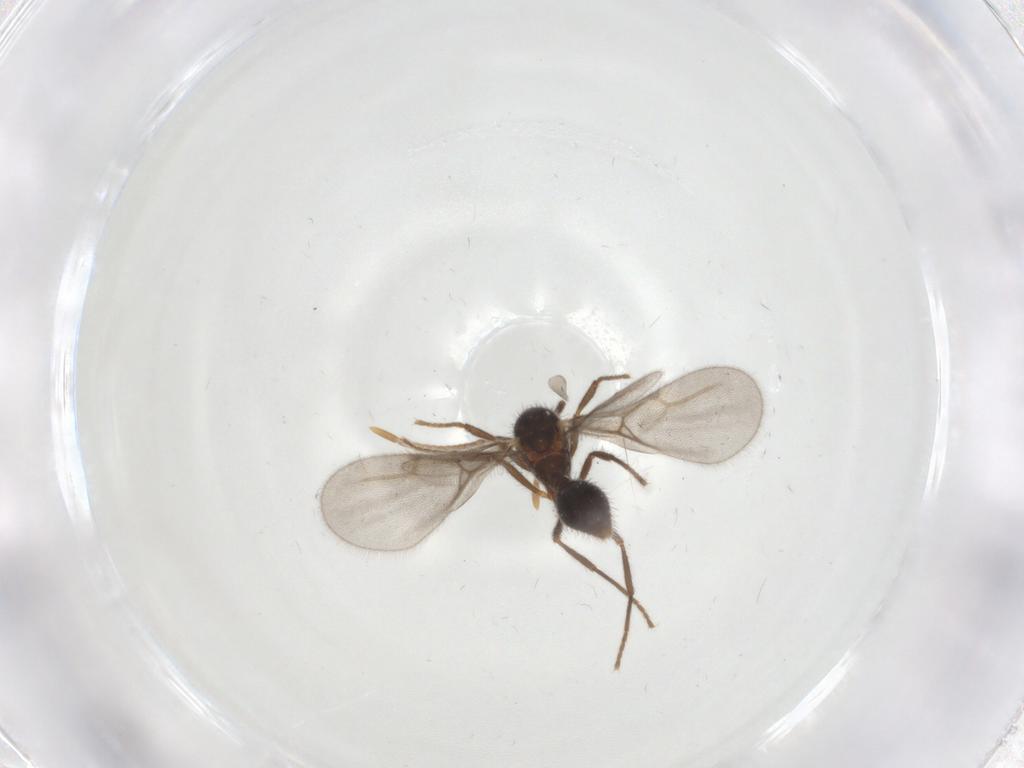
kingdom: Animalia
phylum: Arthropoda
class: Insecta
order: Hymenoptera
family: Formicidae
